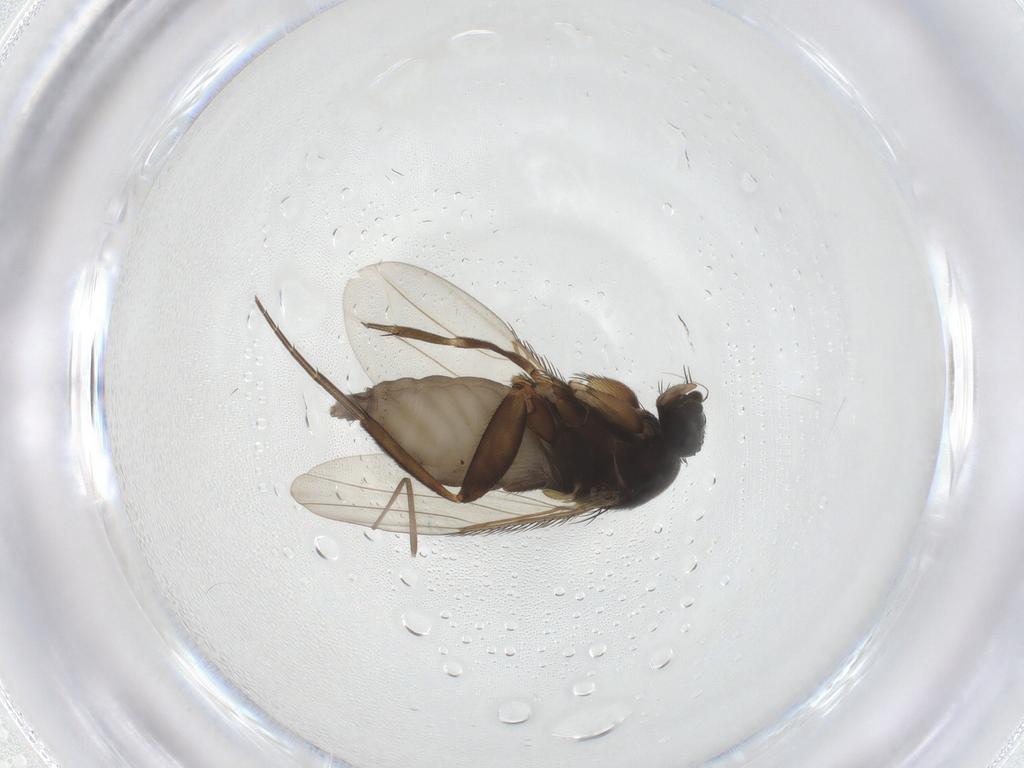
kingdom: Animalia
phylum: Arthropoda
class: Insecta
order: Diptera
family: Phoridae
